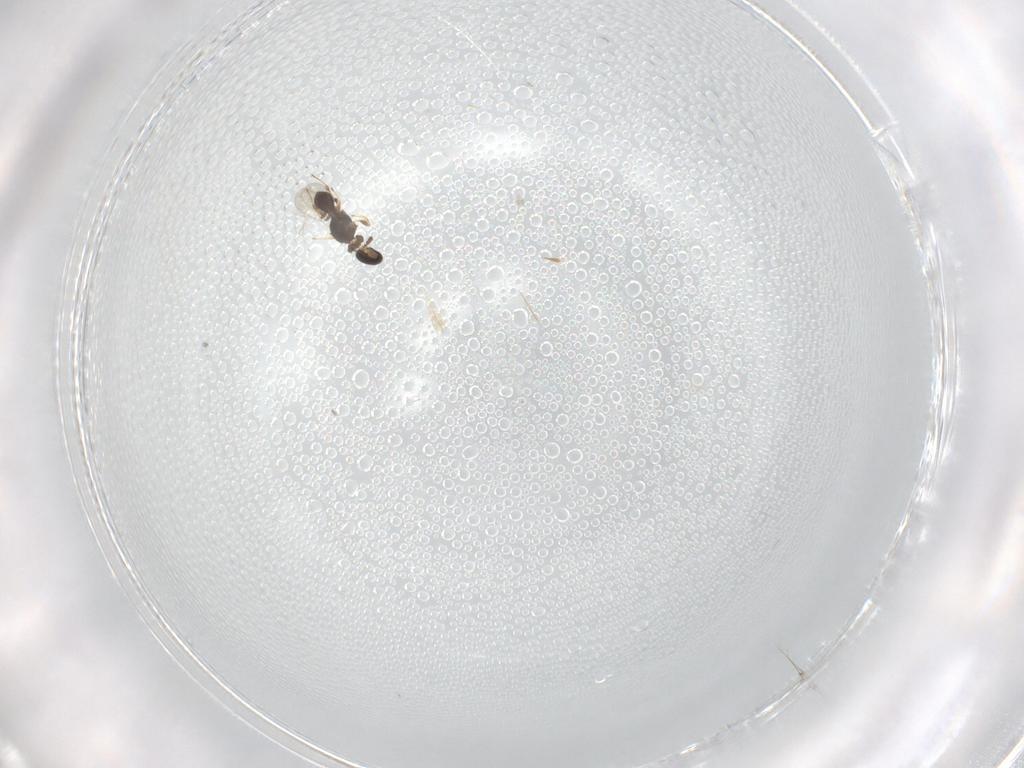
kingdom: Animalia
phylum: Arthropoda
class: Insecta
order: Hymenoptera
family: Platygastridae
